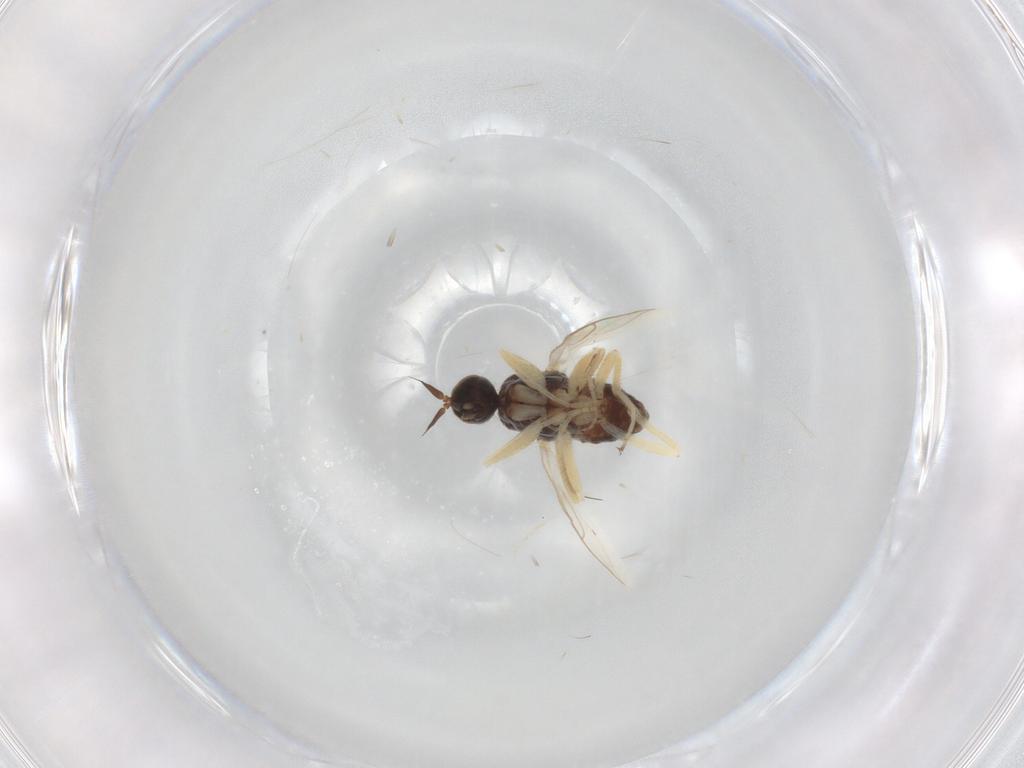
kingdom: Animalia
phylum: Arthropoda
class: Insecta
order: Diptera
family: Hybotidae
